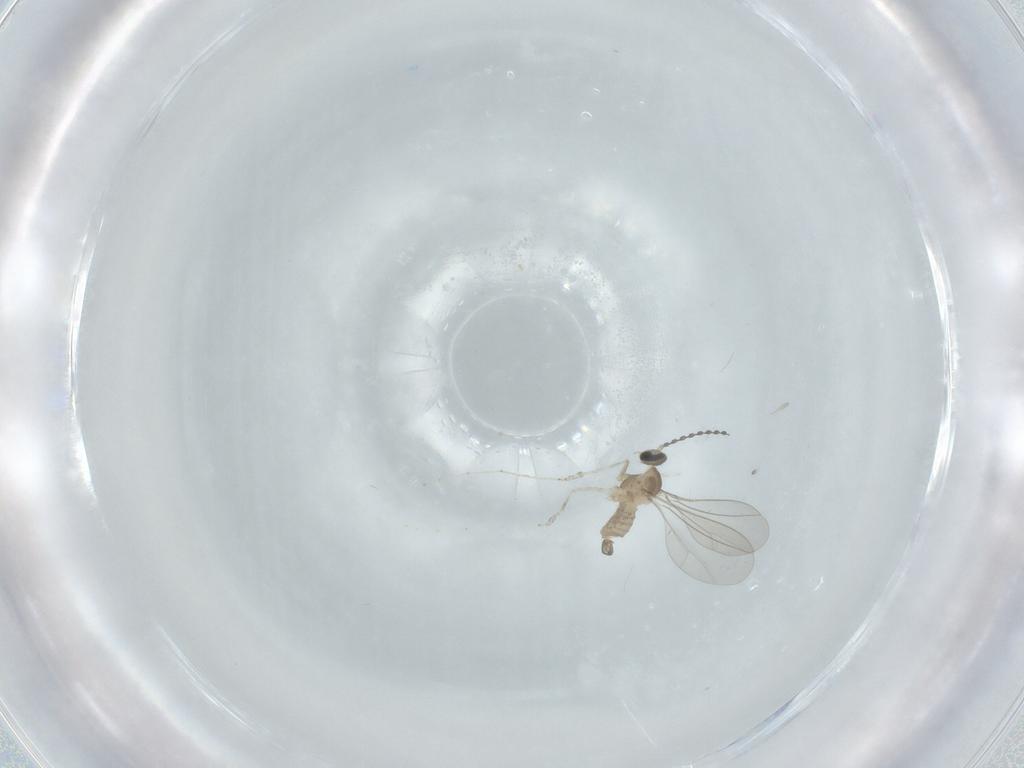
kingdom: Animalia
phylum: Arthropoda
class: Insecta
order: Diptera
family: Cecidomyiidae
